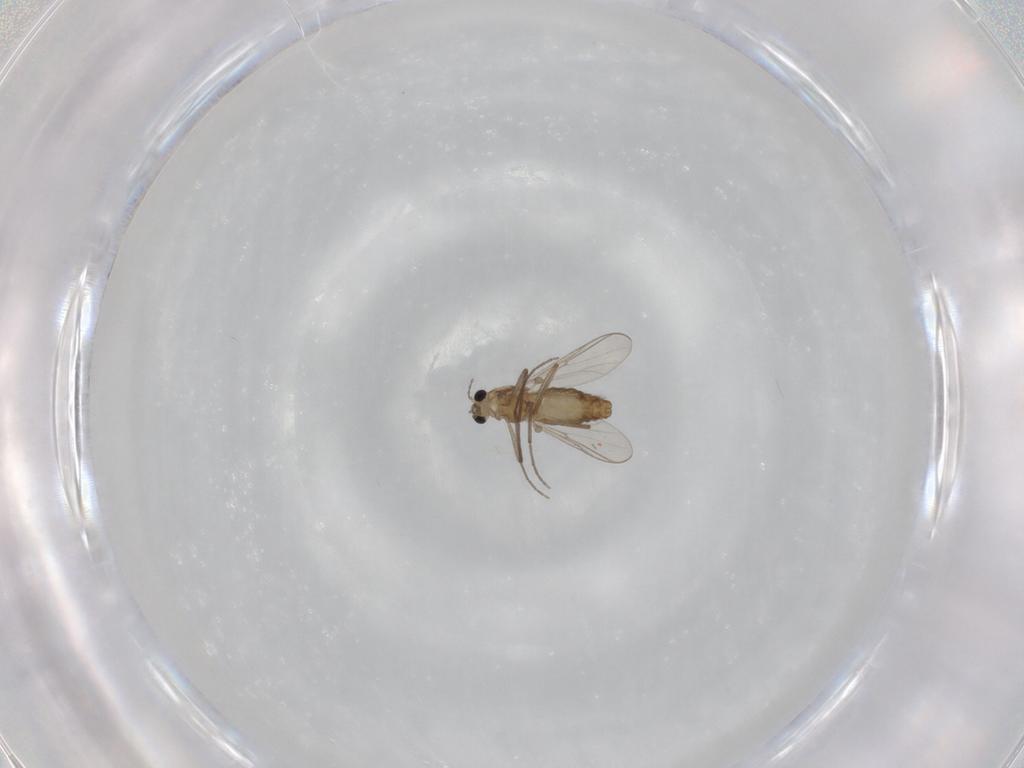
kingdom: Animalia
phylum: Arthropoda
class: Insecta
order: Diptera
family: Chironomidae
